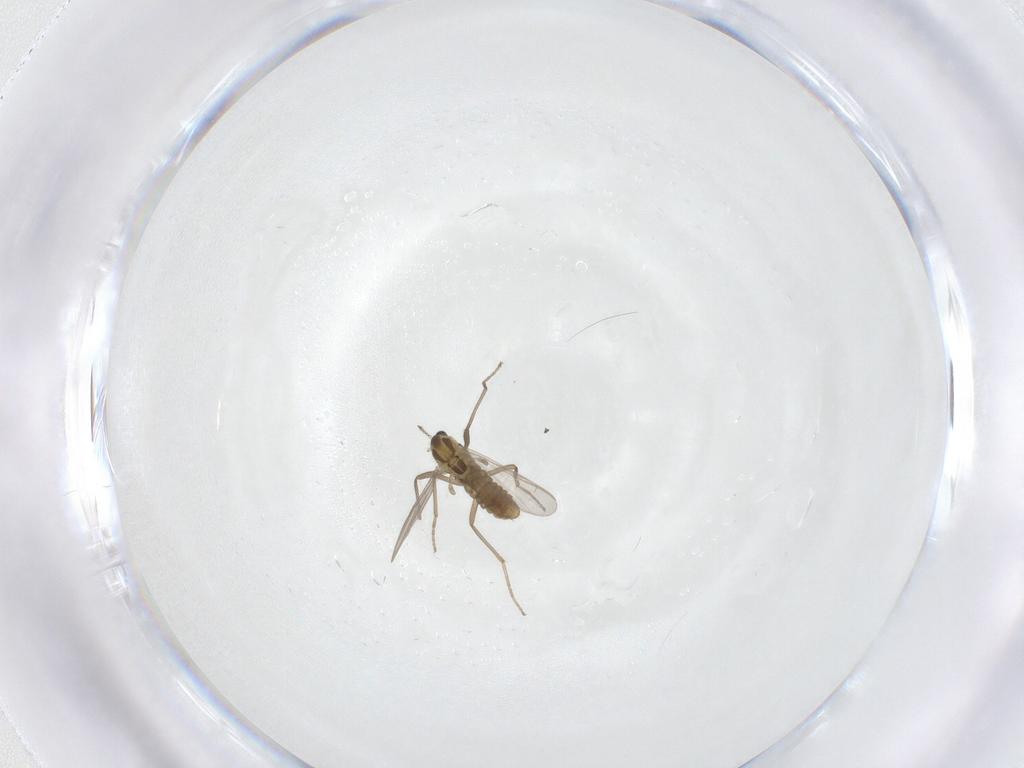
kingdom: Animalia
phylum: Arthropoda
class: Insecta
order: Diptera
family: Chironomidae
